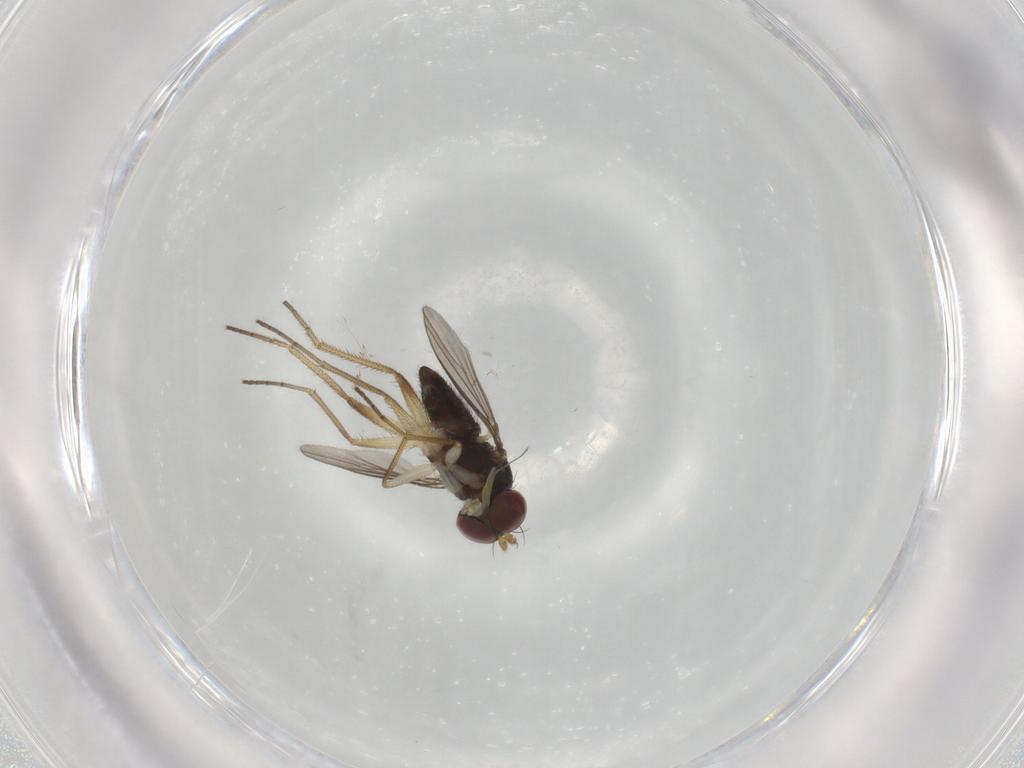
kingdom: Animalia
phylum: Arthropoda
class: Insecta
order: Diptera
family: Dolichopodidae
